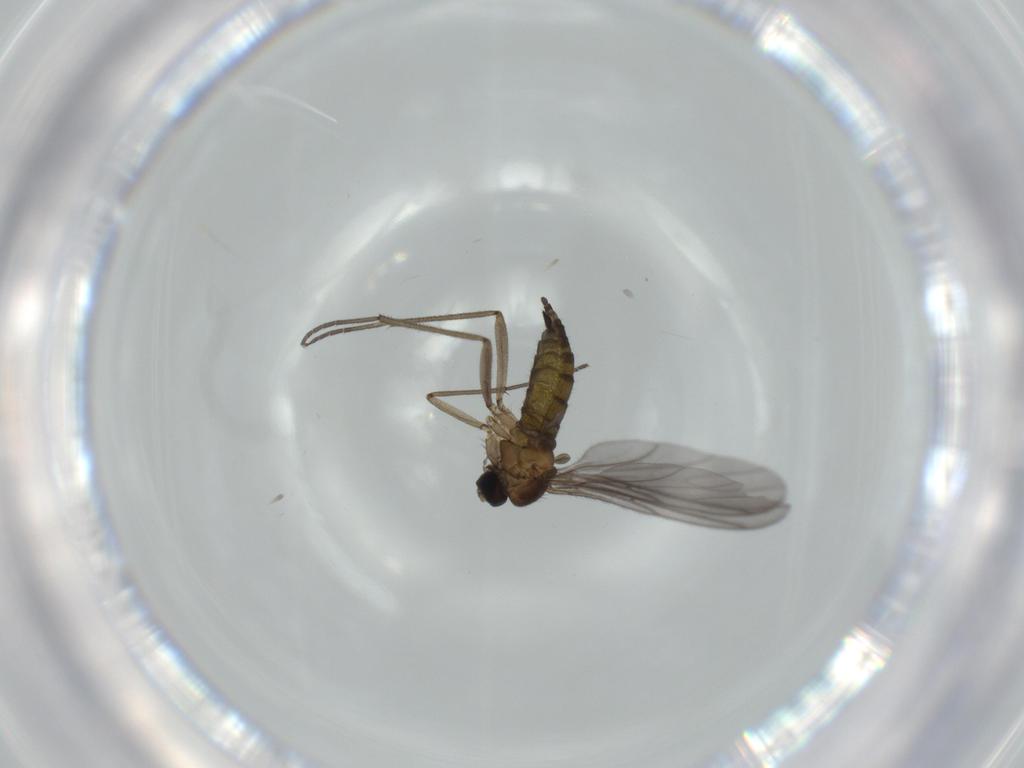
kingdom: Animalia
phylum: Arthropoda
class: Insecta
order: Diptera
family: Sciaridae
